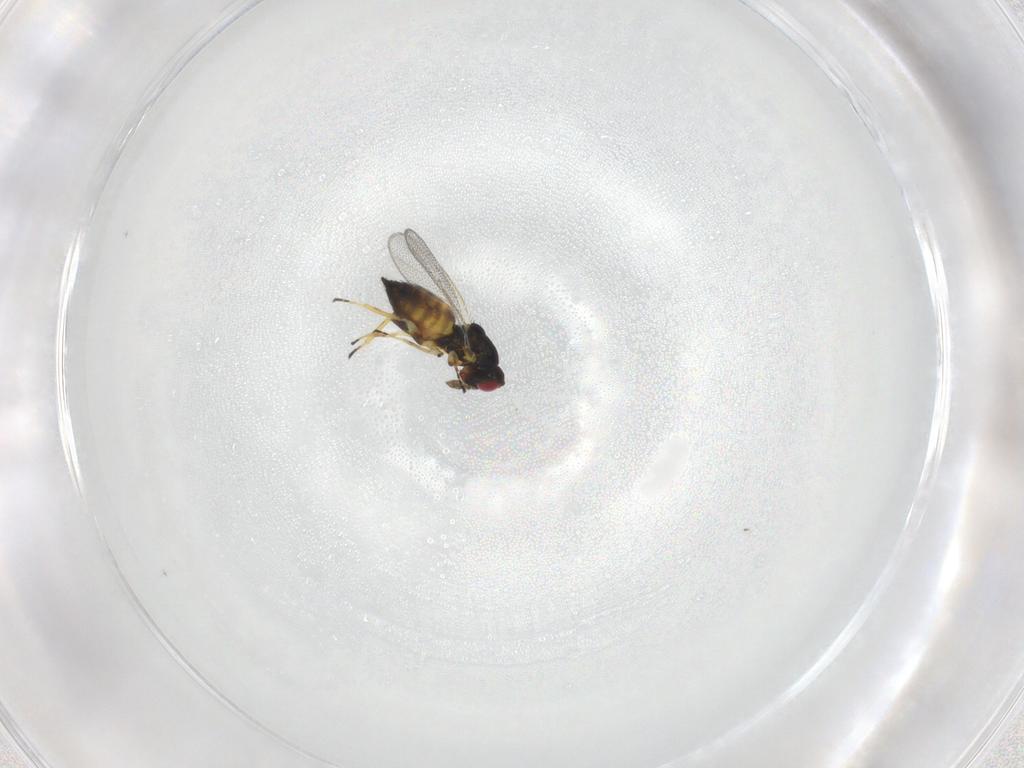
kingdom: Animalia
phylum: Arthropoda
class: Insecta
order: Hymenoptera
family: Eulophidae
